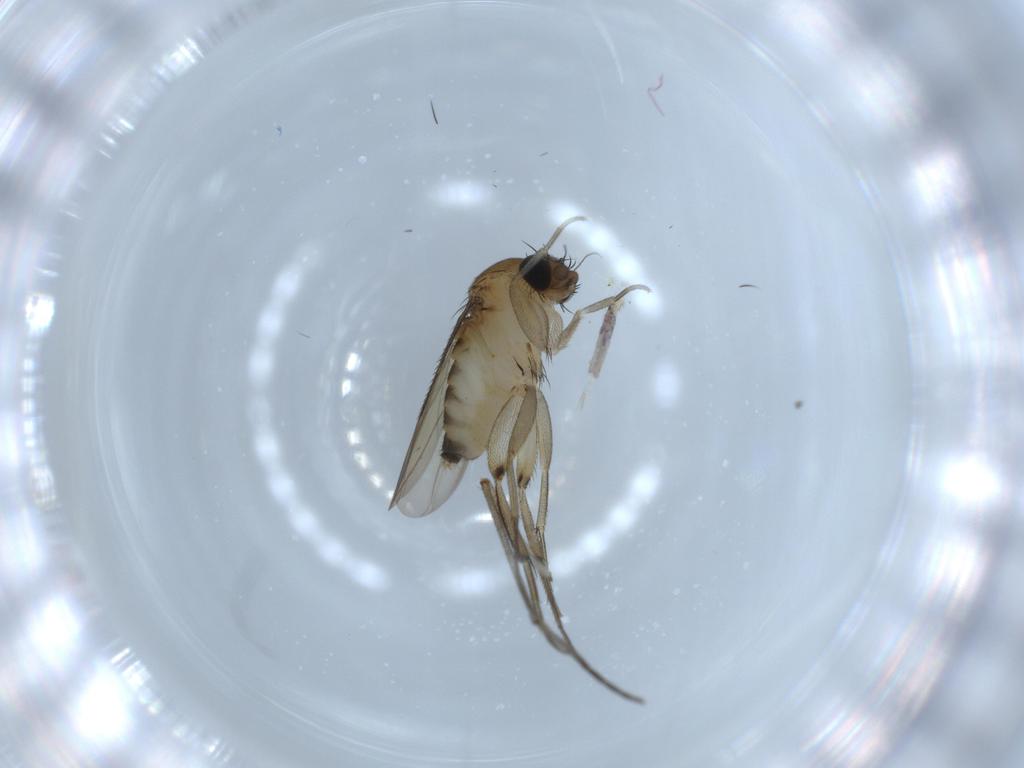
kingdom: Animalia
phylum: Arthropoda
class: Insecta
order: Diptera
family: Phoridae
